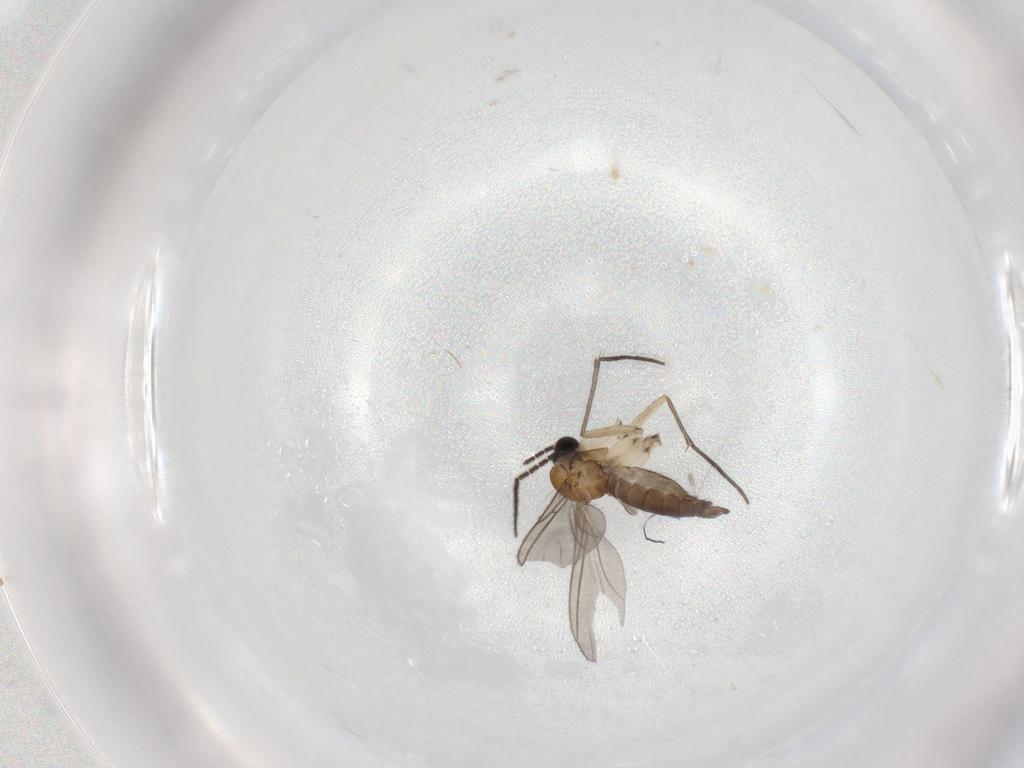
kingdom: Animalia
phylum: Arthropoda
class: Insecta
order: Diptera
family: Sciaridae
